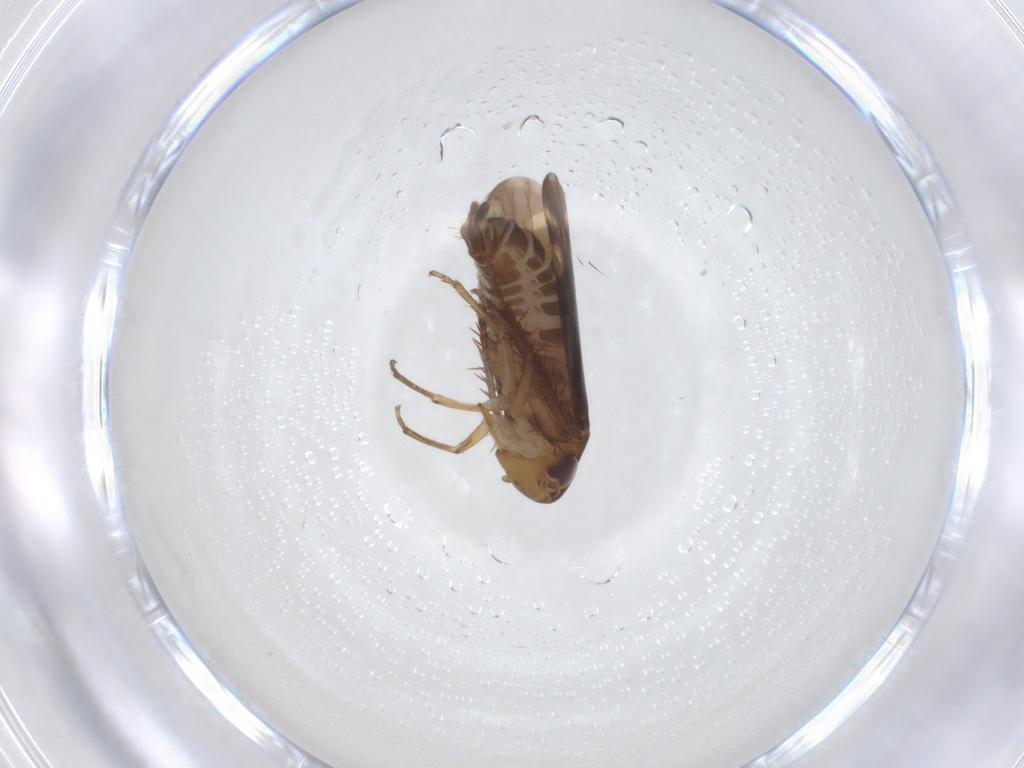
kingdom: Animalia
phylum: Arthropoda
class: Insecta
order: Hemiptera
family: Cicadellidae
